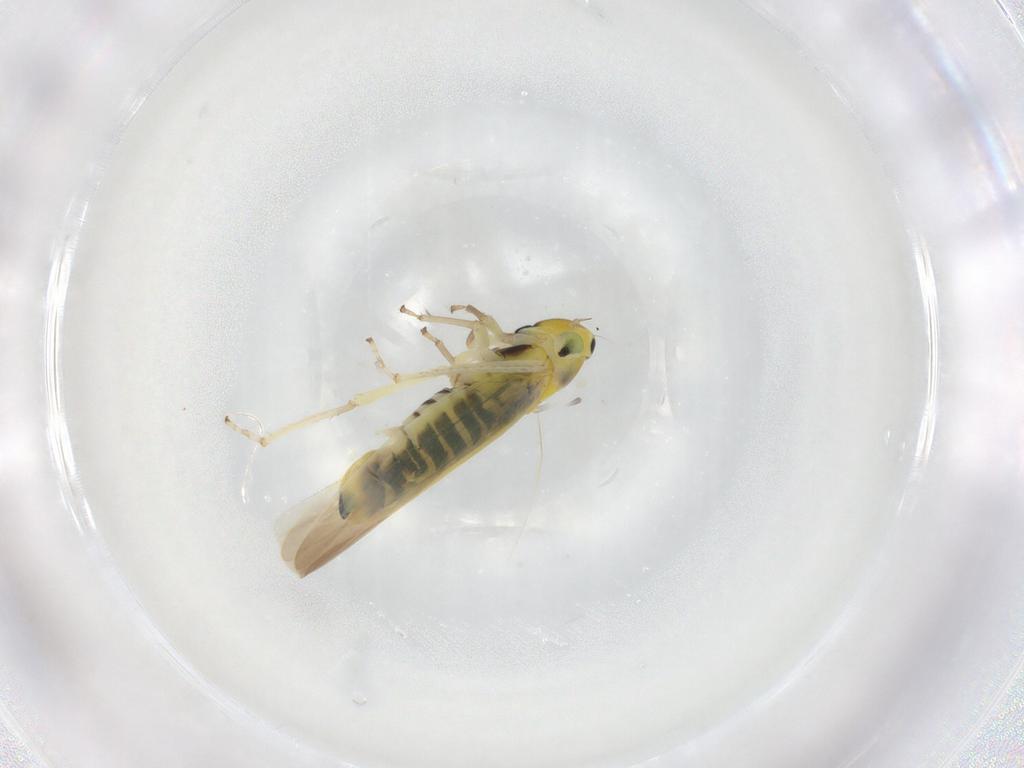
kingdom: Animalia
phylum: Arthropoda
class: Insecta
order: Hemiptera
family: Cicadellidae
